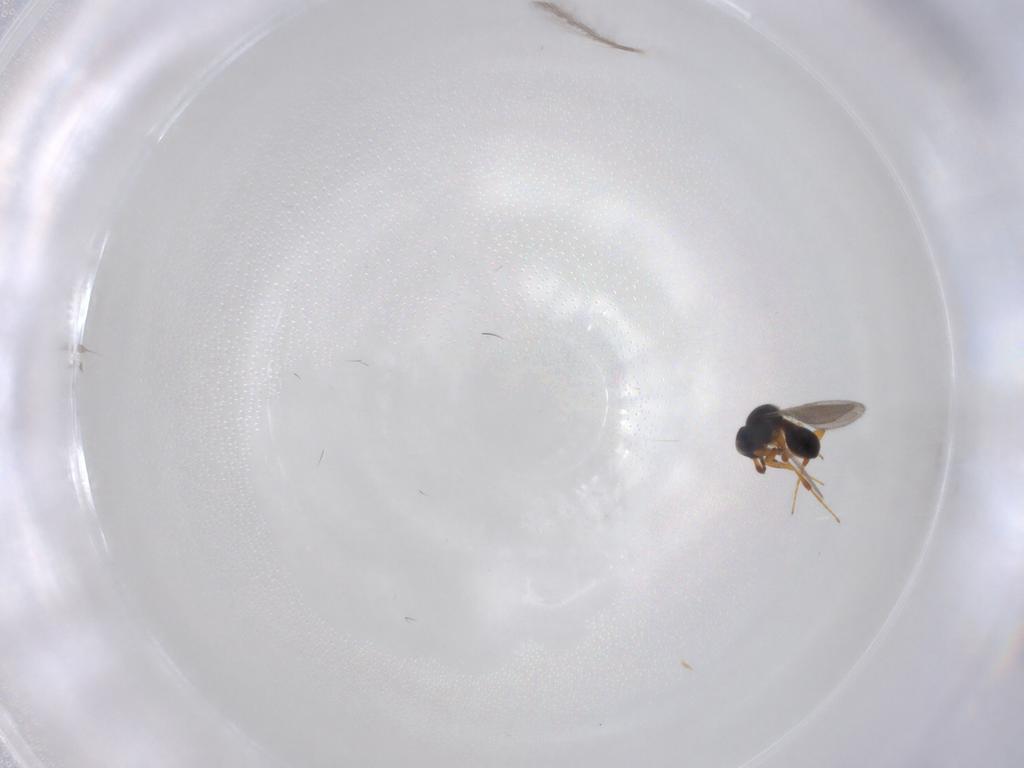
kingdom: Animalia
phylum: Arthropoda
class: Insecta
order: Hymenoptera
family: Platygastridae
